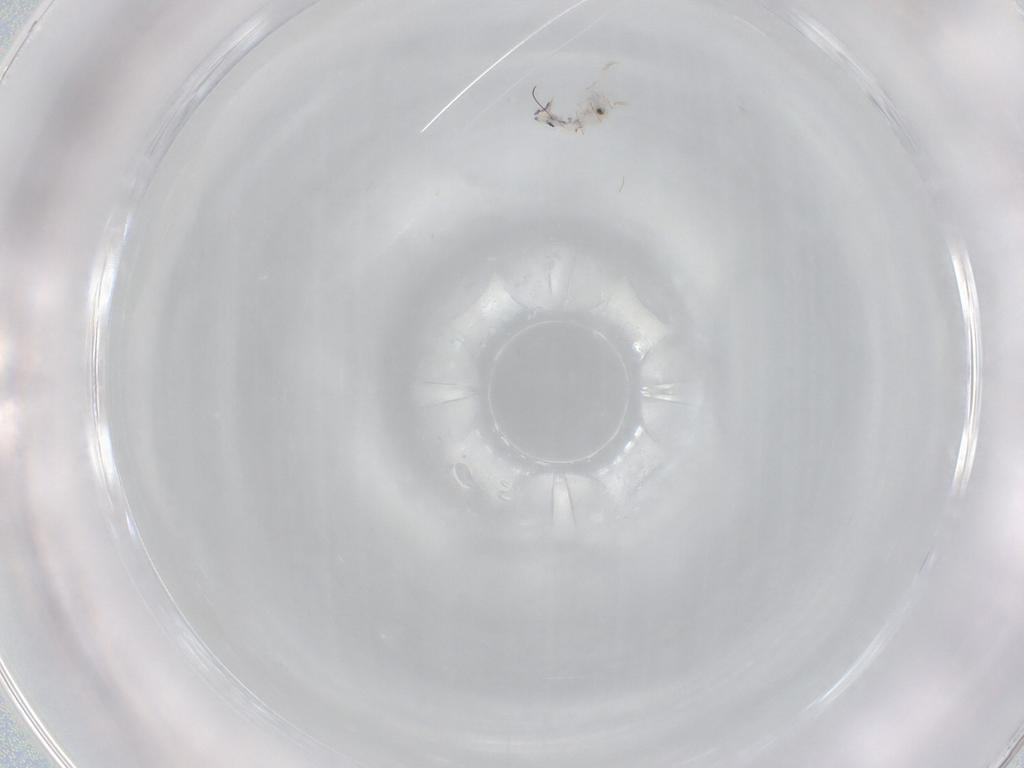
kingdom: Animalia
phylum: Arthropoda
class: Collembola
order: Entomobryomorpha
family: Entomobryidae
